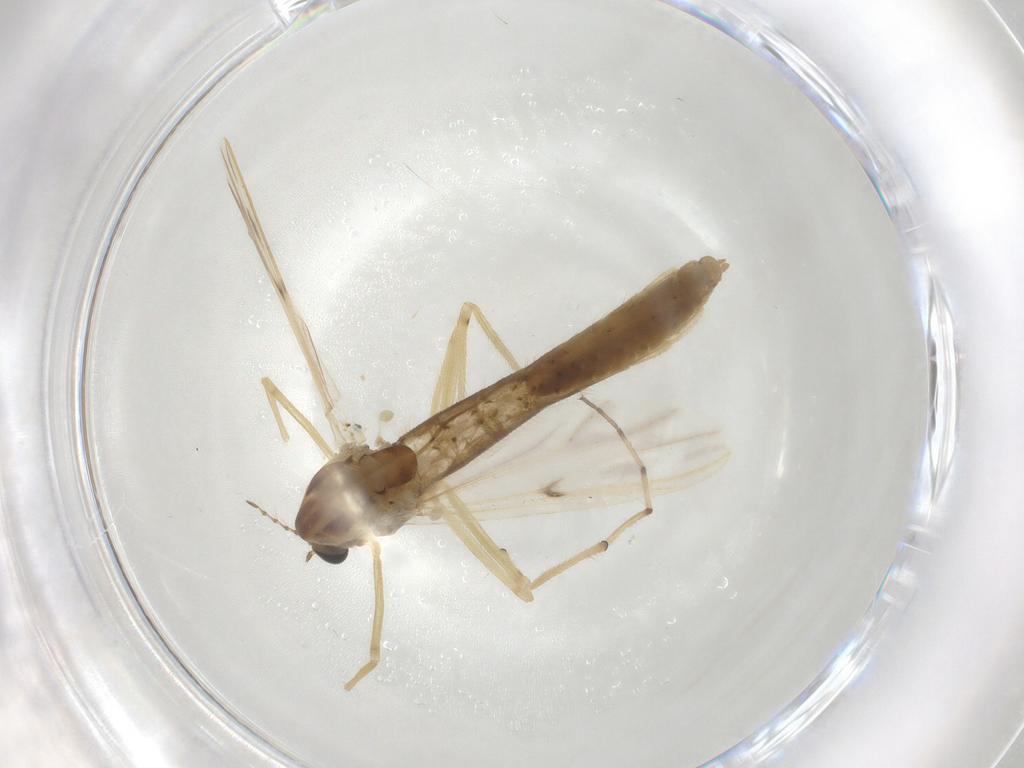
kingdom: Animalia
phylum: Arthropoda
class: Insecta
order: Diptera
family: Chironomidae
